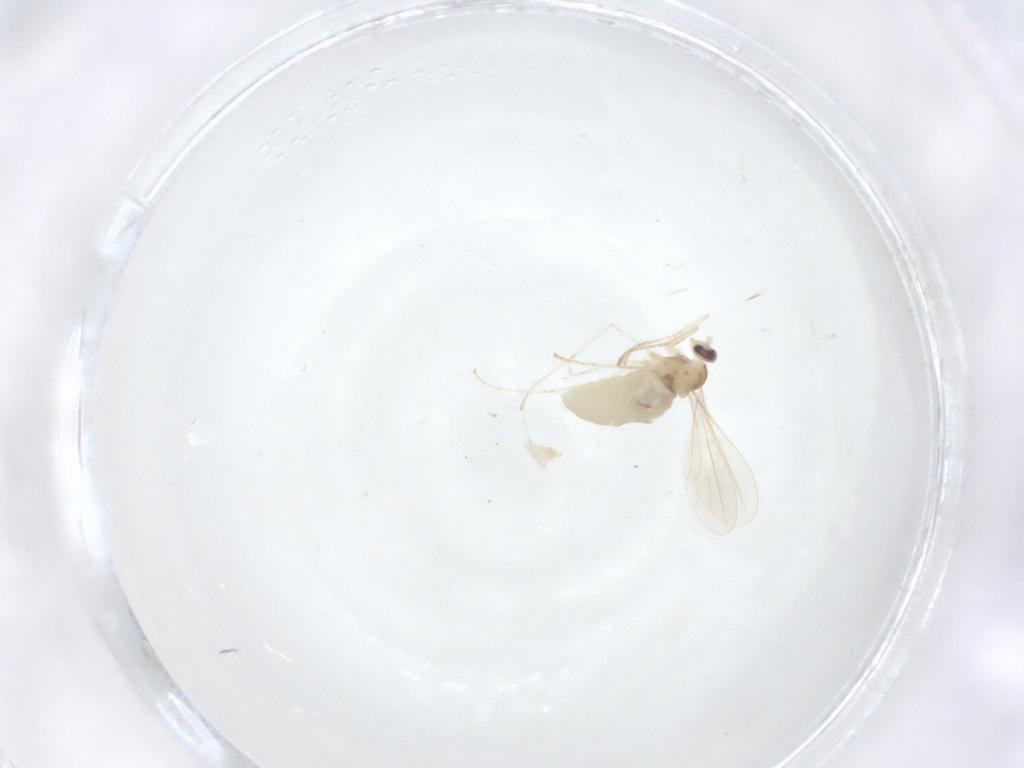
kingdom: Animalia
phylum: Arthropoda
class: Insecta
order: Diptera
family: Cecidomyiidae
